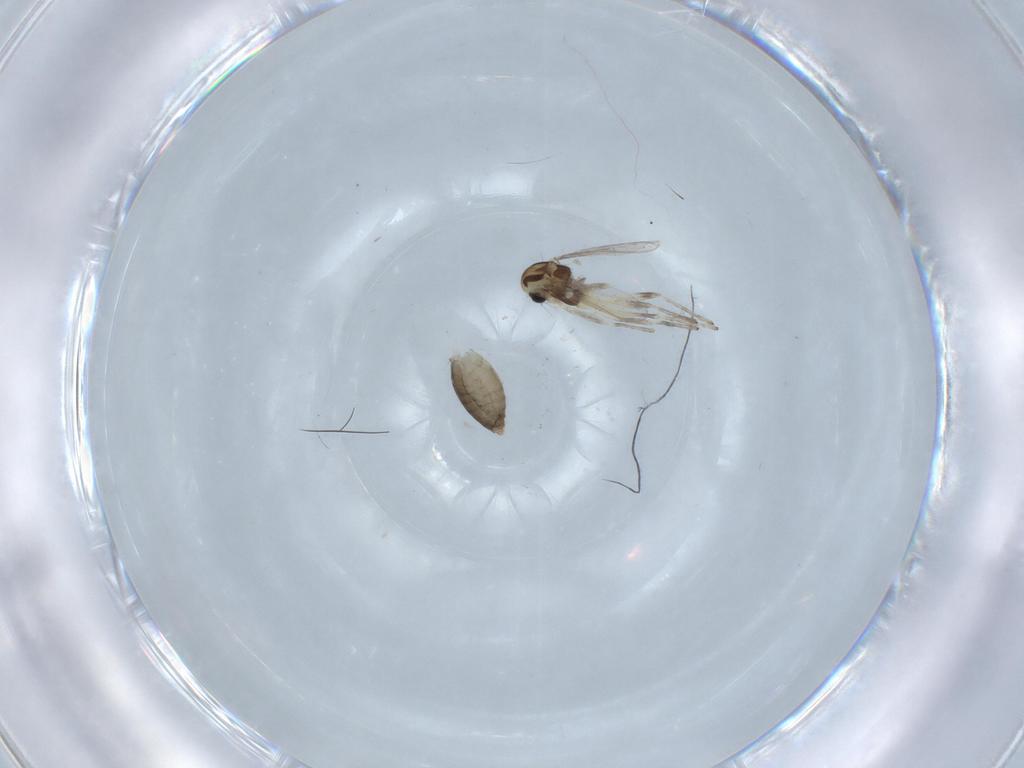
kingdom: Animalia
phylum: Arthropoda
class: Insecta
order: Diptera
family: Chironomidae
